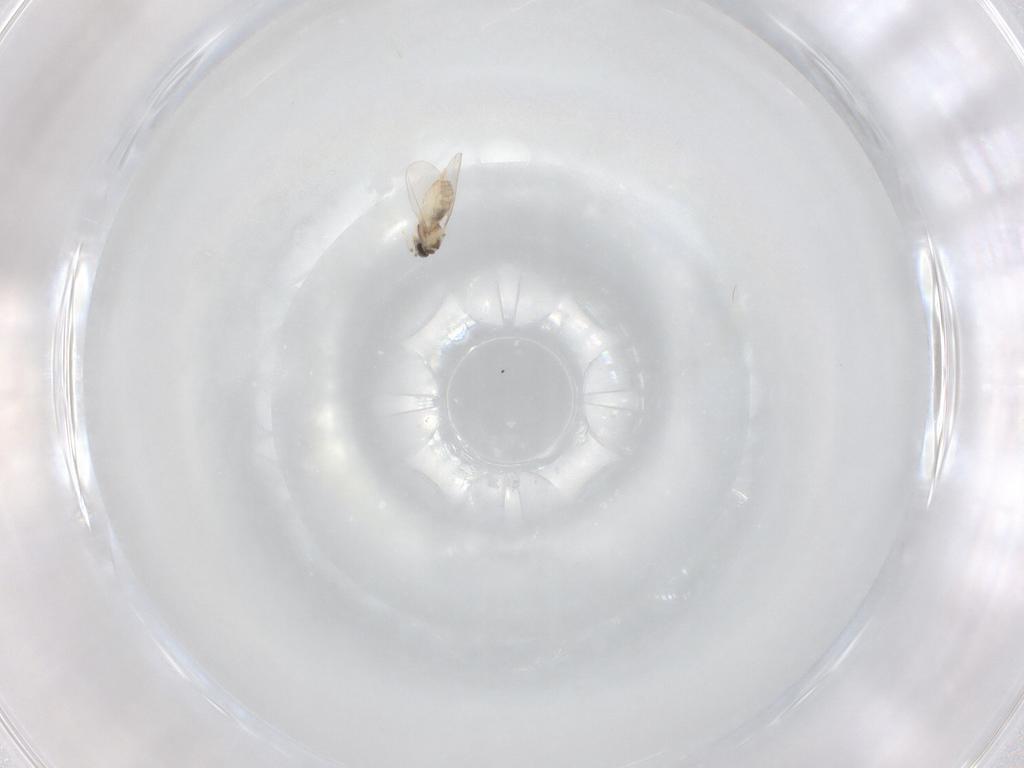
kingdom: Animalia
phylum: Arthropoda
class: Insecta
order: Diptera
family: Cecidomyiidae
